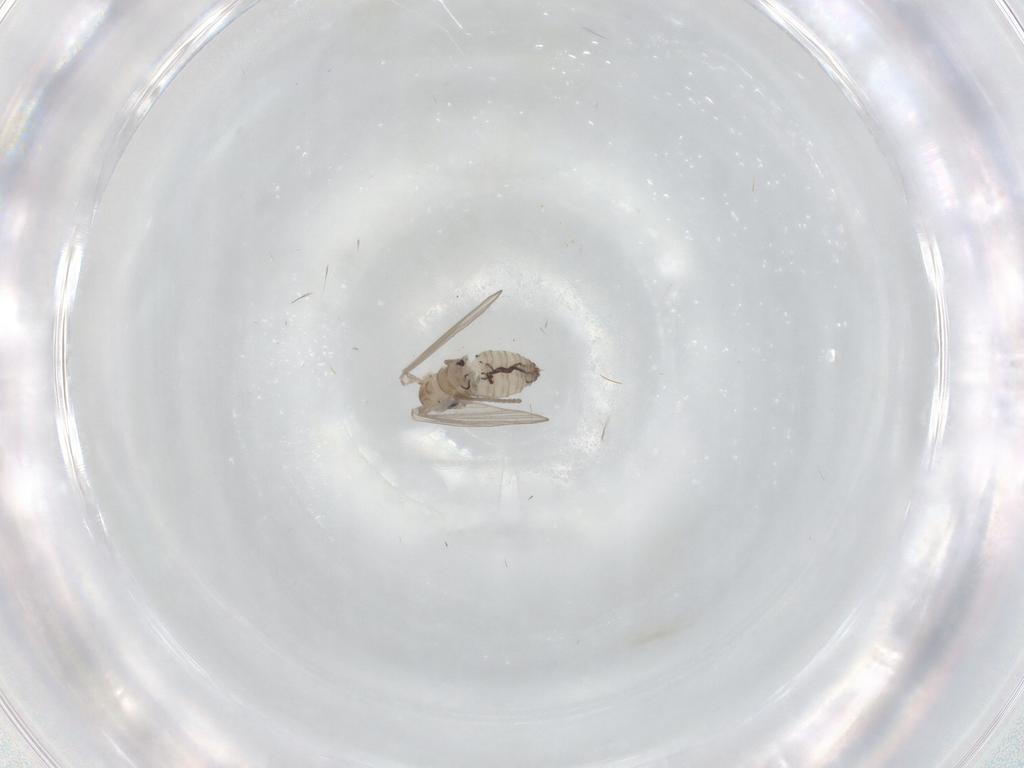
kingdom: Animalia
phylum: Arthropoda
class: Insecta
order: Diptera
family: Psychodidae
